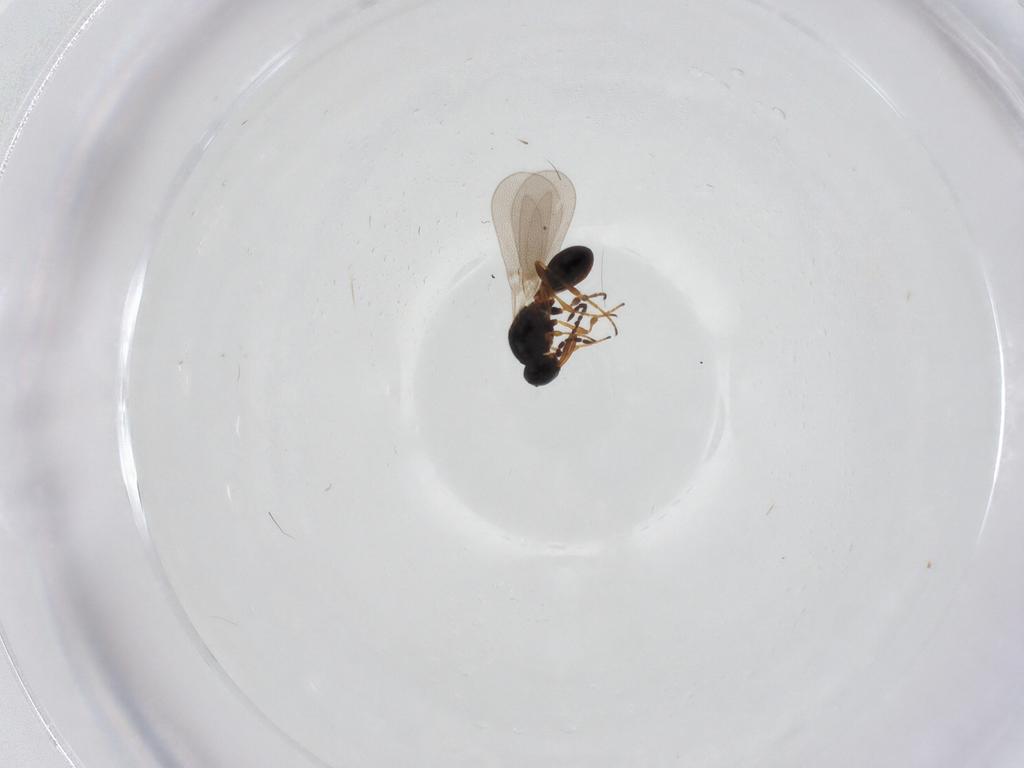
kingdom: Animalia
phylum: Arthropoda
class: Insecta
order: Hymenoptera
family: Platygastridae
